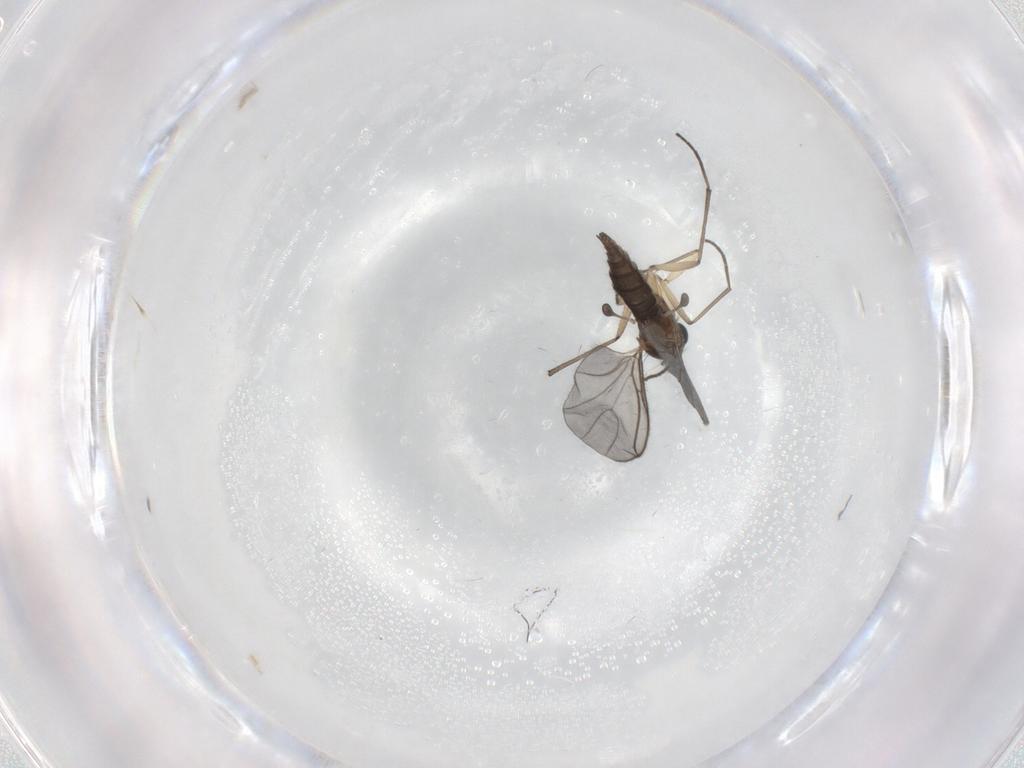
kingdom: Animalia
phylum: Arthropoda
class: Insecta
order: Diptera
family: Sciaridae
